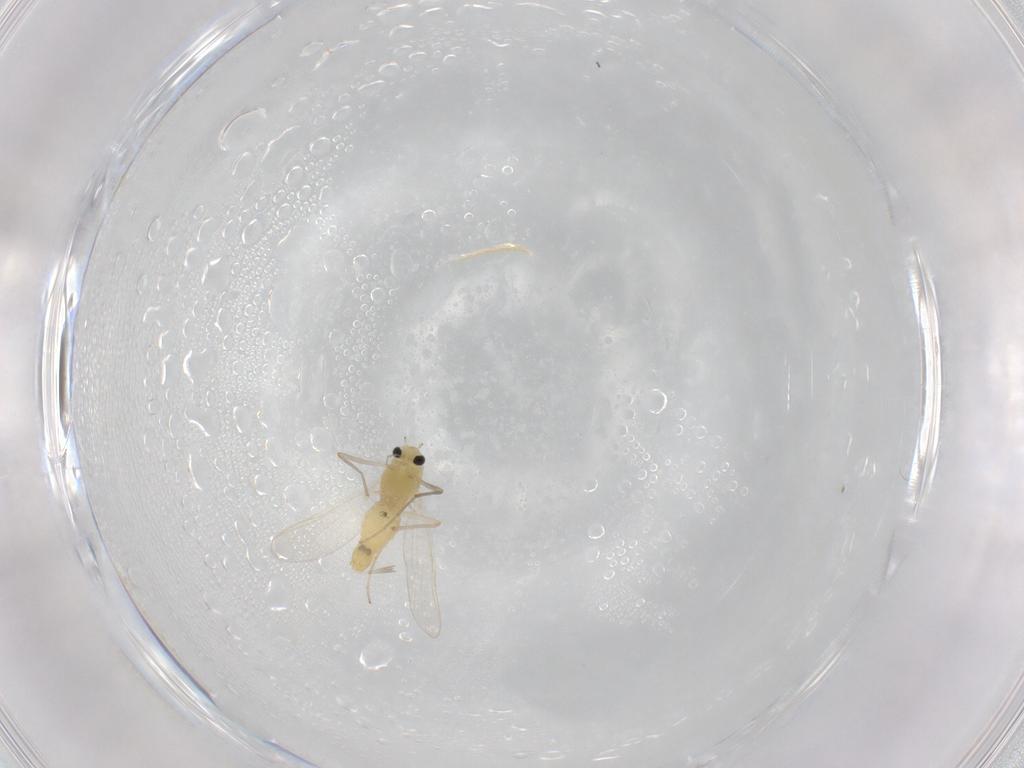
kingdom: Animalia
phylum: Arthropoda
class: Insecta
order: Diptera
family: Chironomidae
